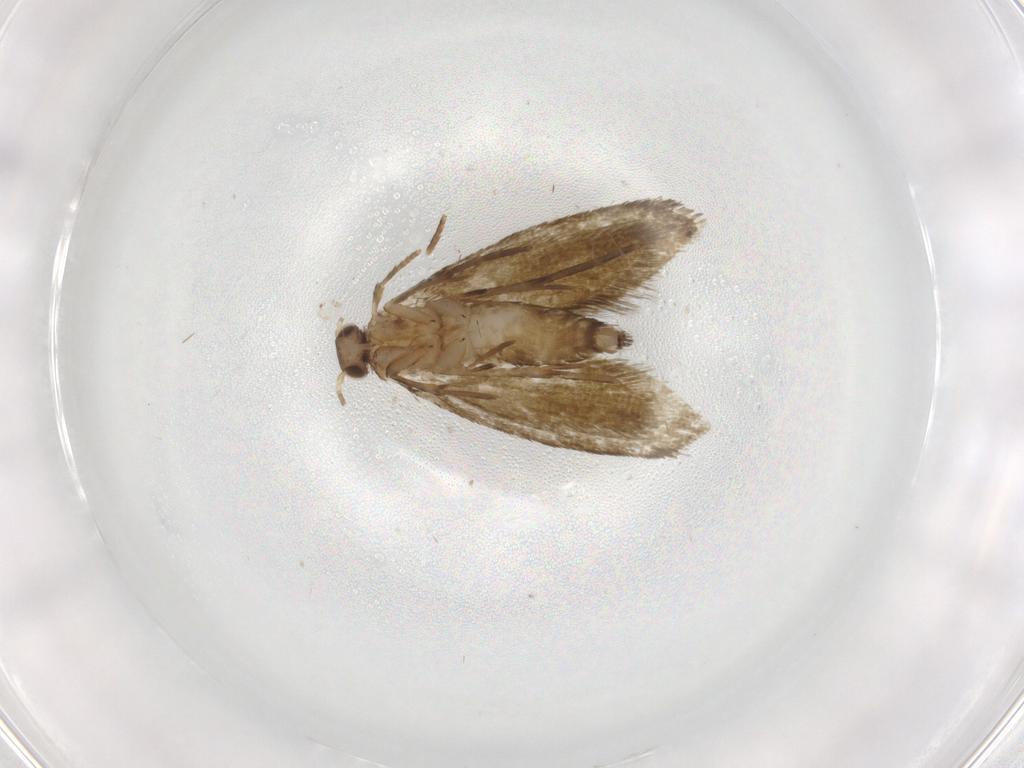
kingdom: Animalia
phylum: Arthropoda
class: Insecta
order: Lepidoptera
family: Tineidae
